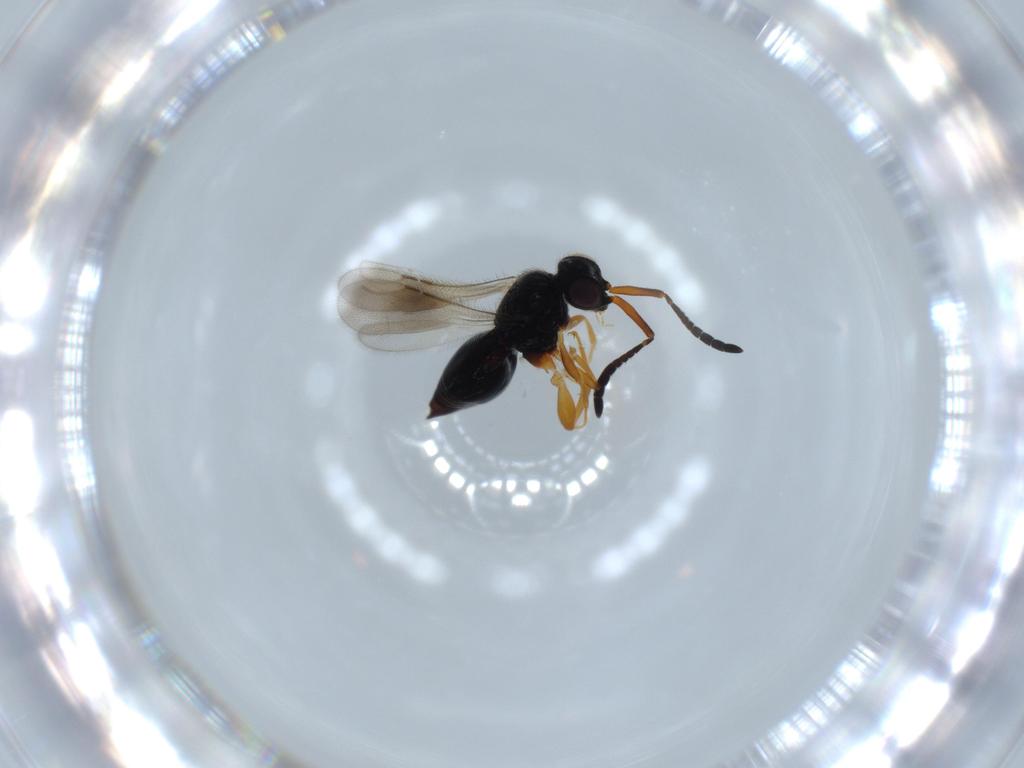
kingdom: Animalia
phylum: Arthropoda
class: Insecta
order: Hymenoptera
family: Ceraphronidae
